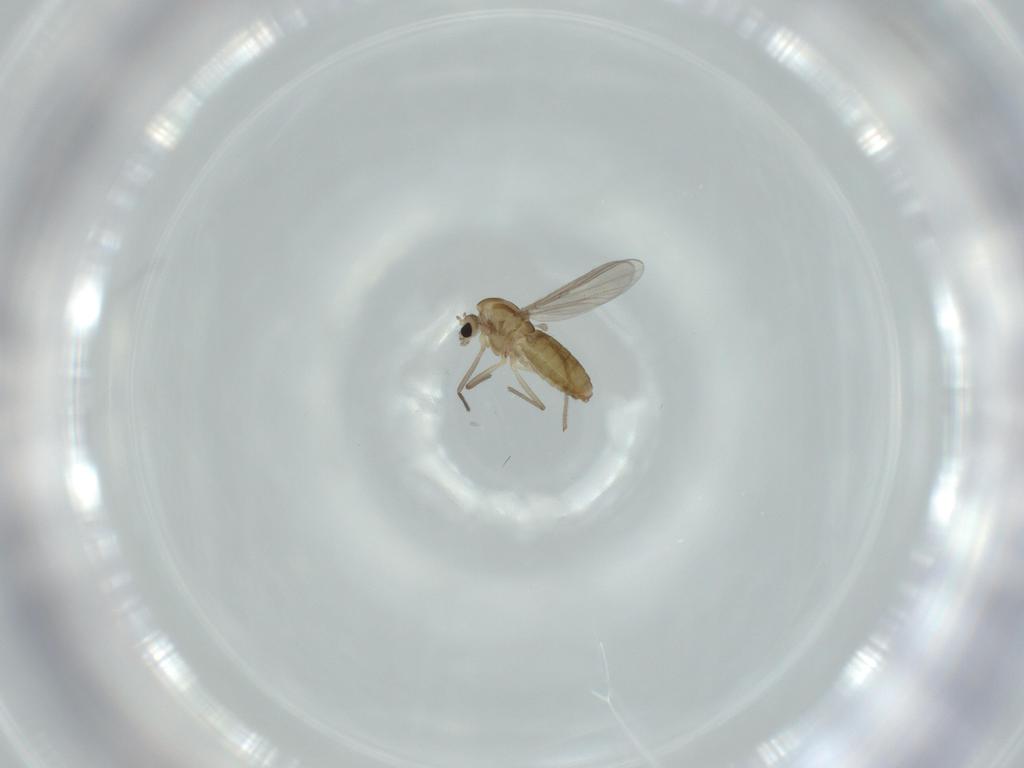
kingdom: Animalia
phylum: Arthropoda
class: Insecta
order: Diptera
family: Chironomidae
